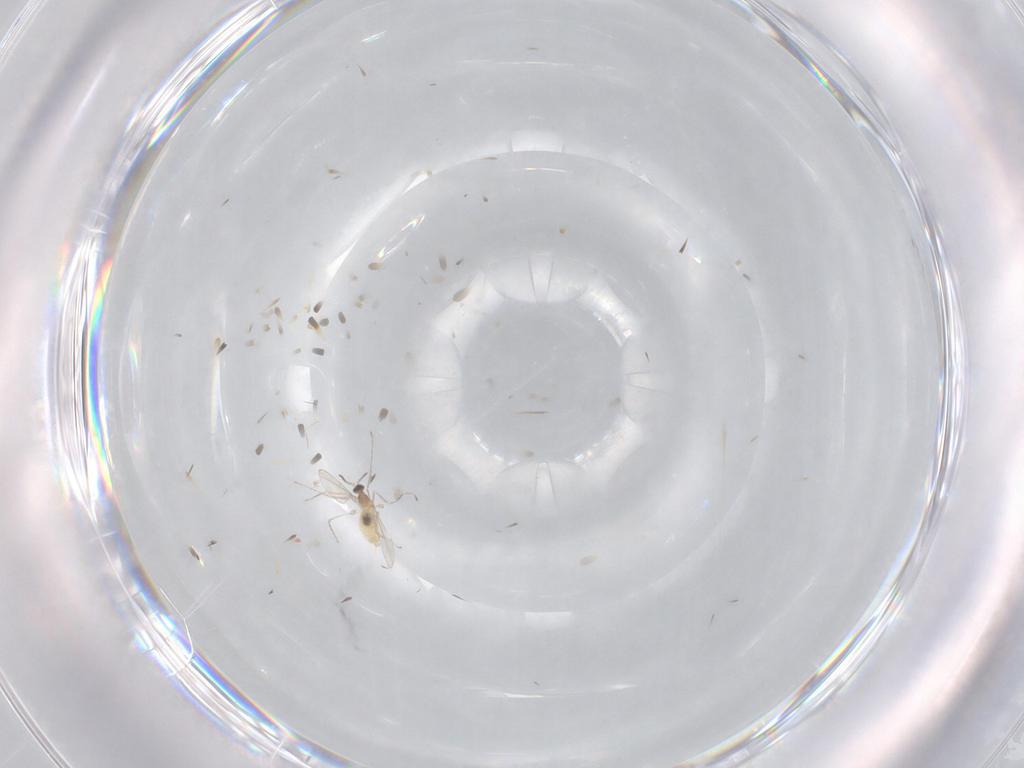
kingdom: Animalia
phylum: Arthropoda
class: Insecta
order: Diptera
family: Cecidomyiidae
